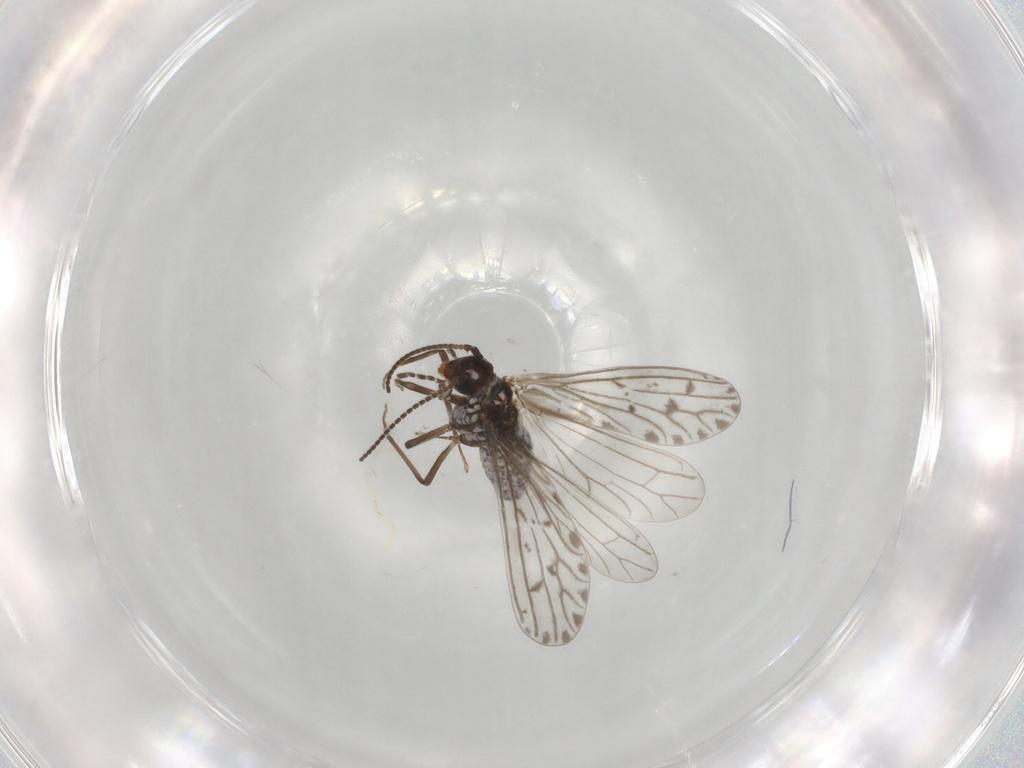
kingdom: Animalia
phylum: Arthropoda
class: Insecta
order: Neuroptera
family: Coniopterygidae
